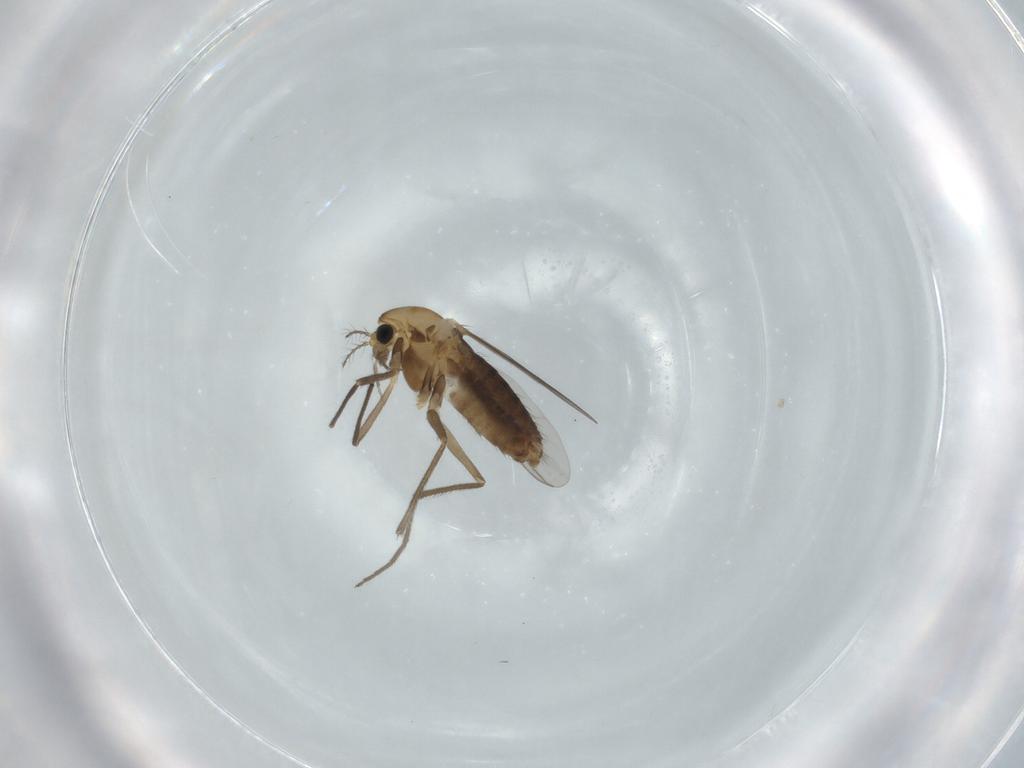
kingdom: Animalia
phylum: Arthropoda
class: Insecta
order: Diptera
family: Chironomidae
